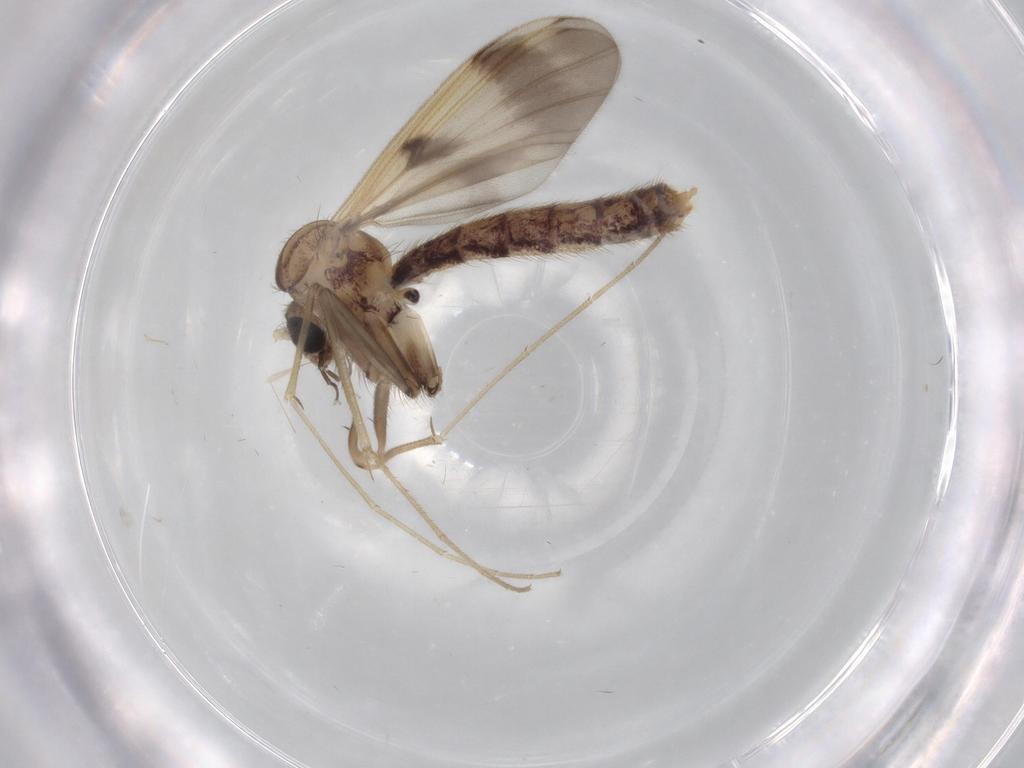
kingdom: Animalia
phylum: Arthropoda
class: Insecta
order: Diptera
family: Mycetophilidae
